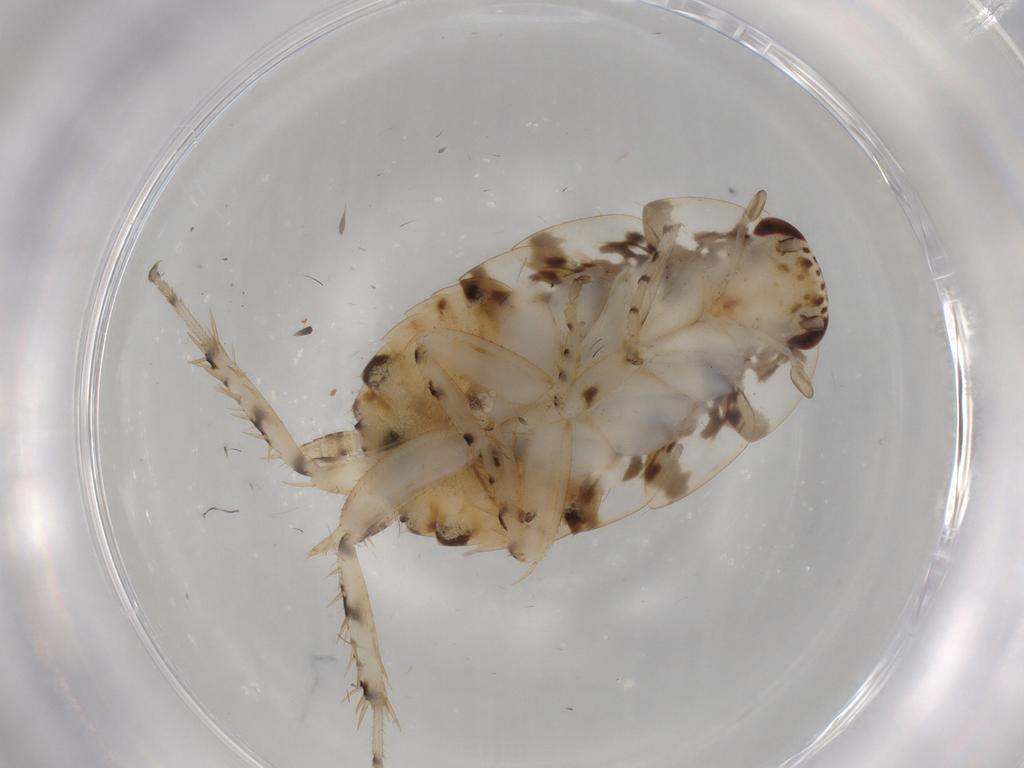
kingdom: Animalia
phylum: Arthropoda
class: Insecta
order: Blattodea
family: Ectobiidae
